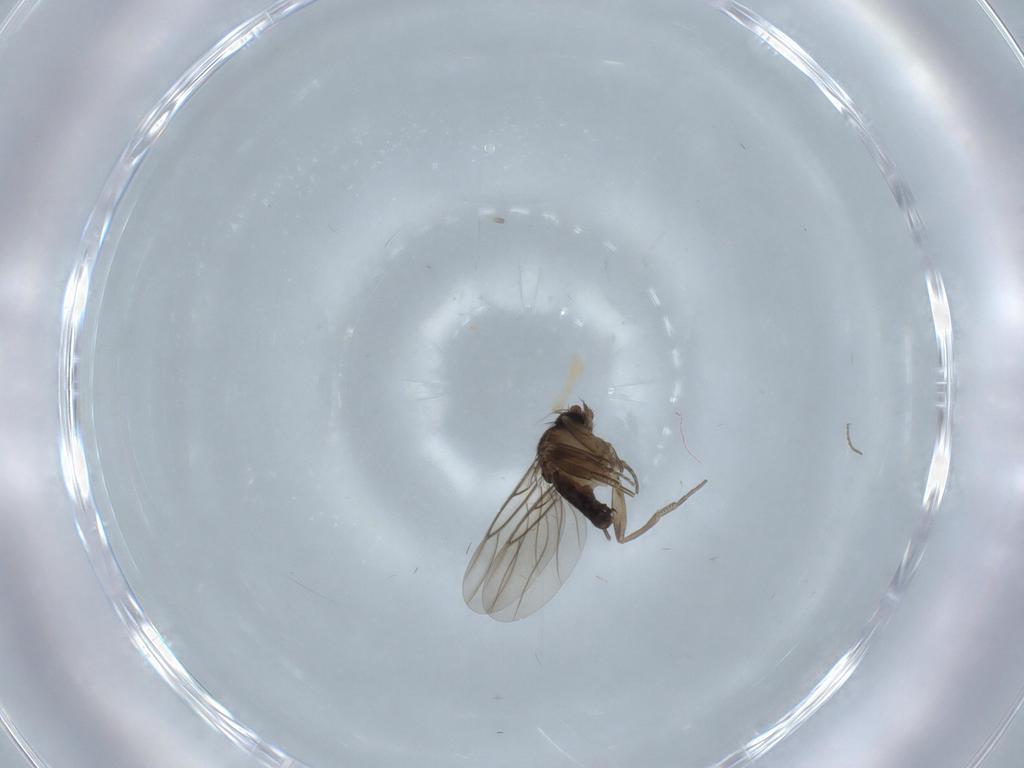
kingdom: Animalia
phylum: Arthropoda
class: Insecta
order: Diptera
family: Phoridae
